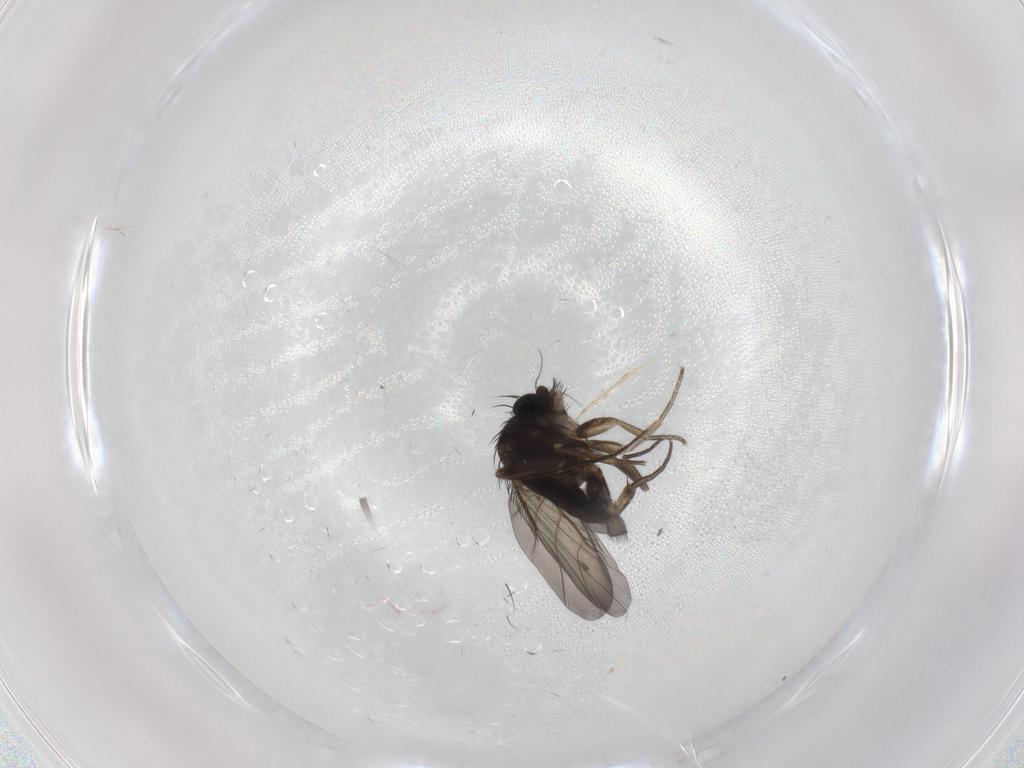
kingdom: Animalia
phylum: Arthropoda
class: Insecta
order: Diptera
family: Phoridae
